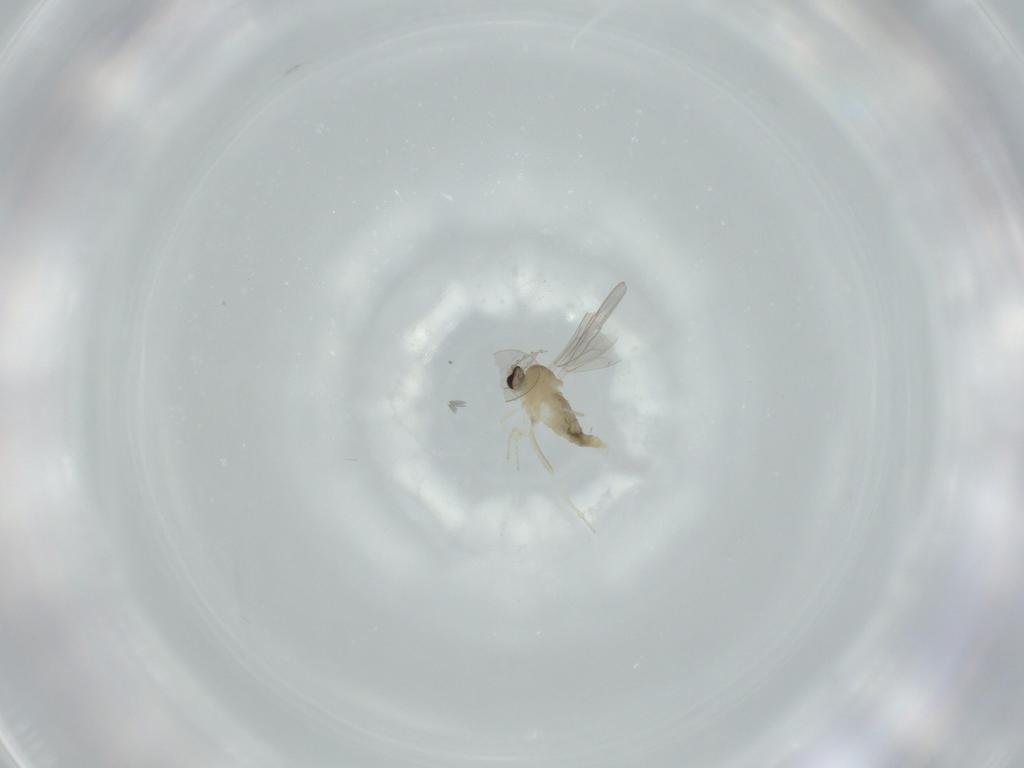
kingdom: Animalia
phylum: Arthropoda
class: Insecta
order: Diptera
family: Cecidomyiidae
